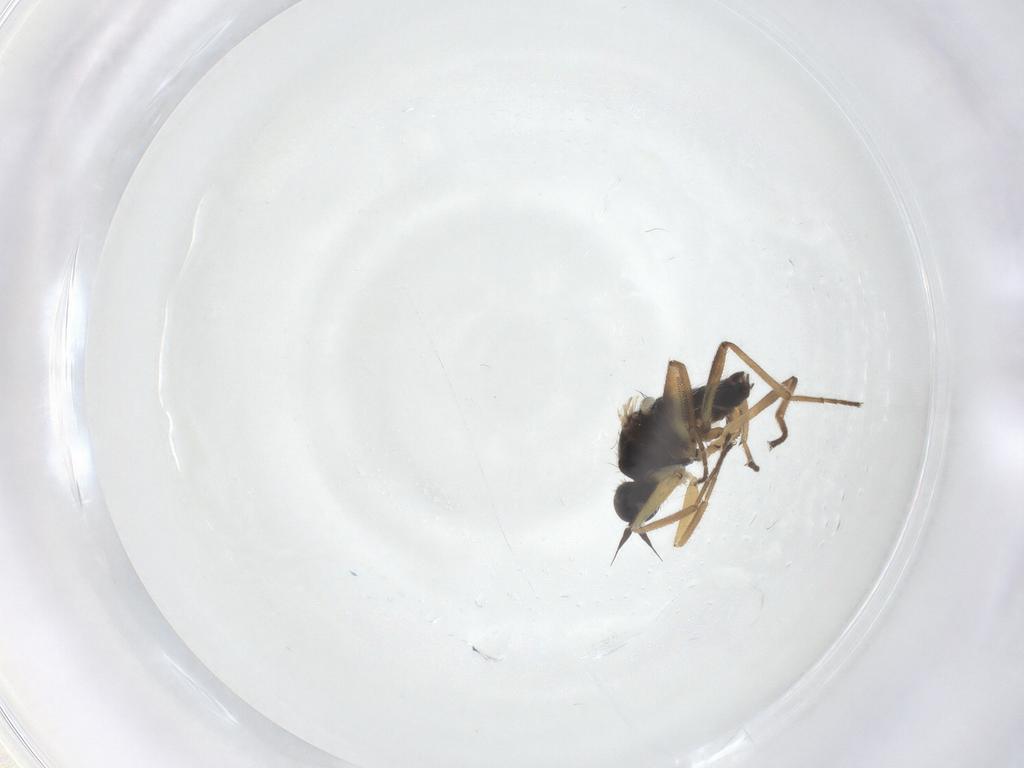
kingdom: Animalia
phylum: Arthropoda
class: Insecta
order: Diptera
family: Hybotidae
